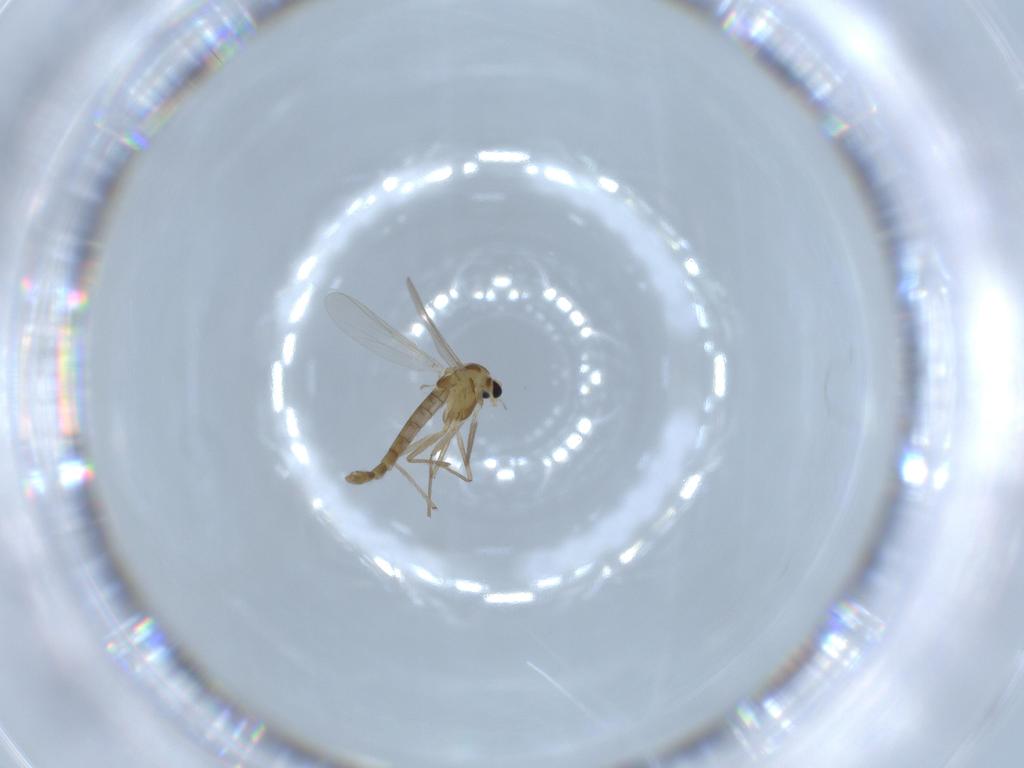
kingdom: Animalia
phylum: Arthropoda
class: Insecta
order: Diptera
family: Chironomidae
